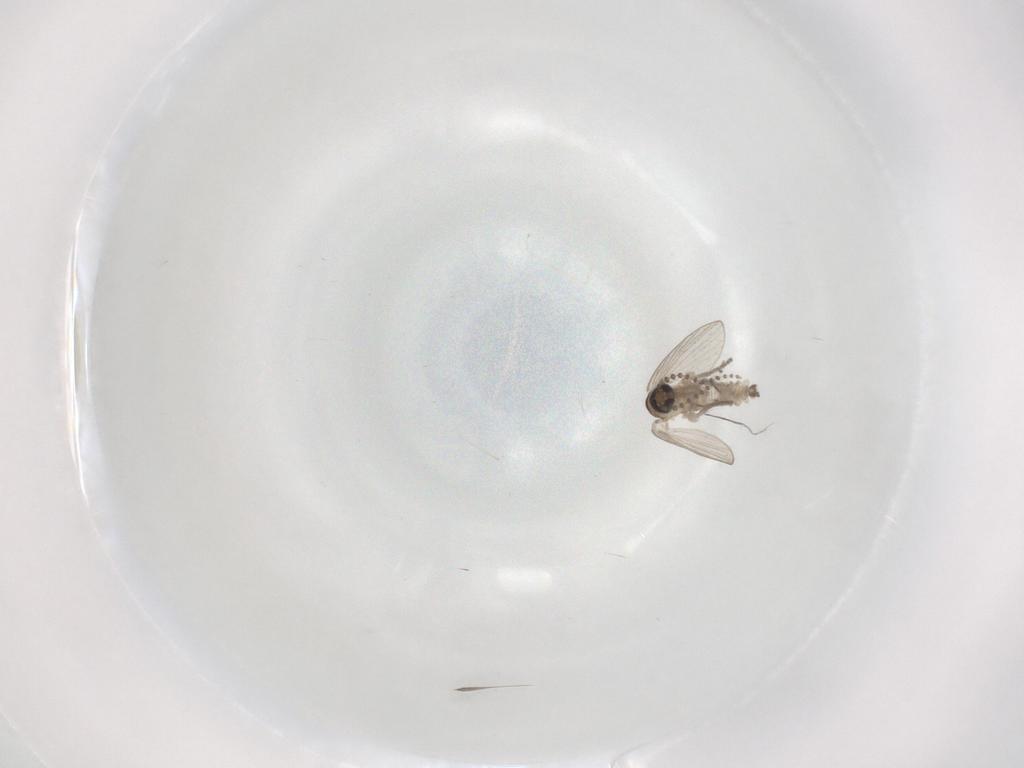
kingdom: Animalia
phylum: Arthropoda
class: Insecta
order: Diptera
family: Psychodidae
